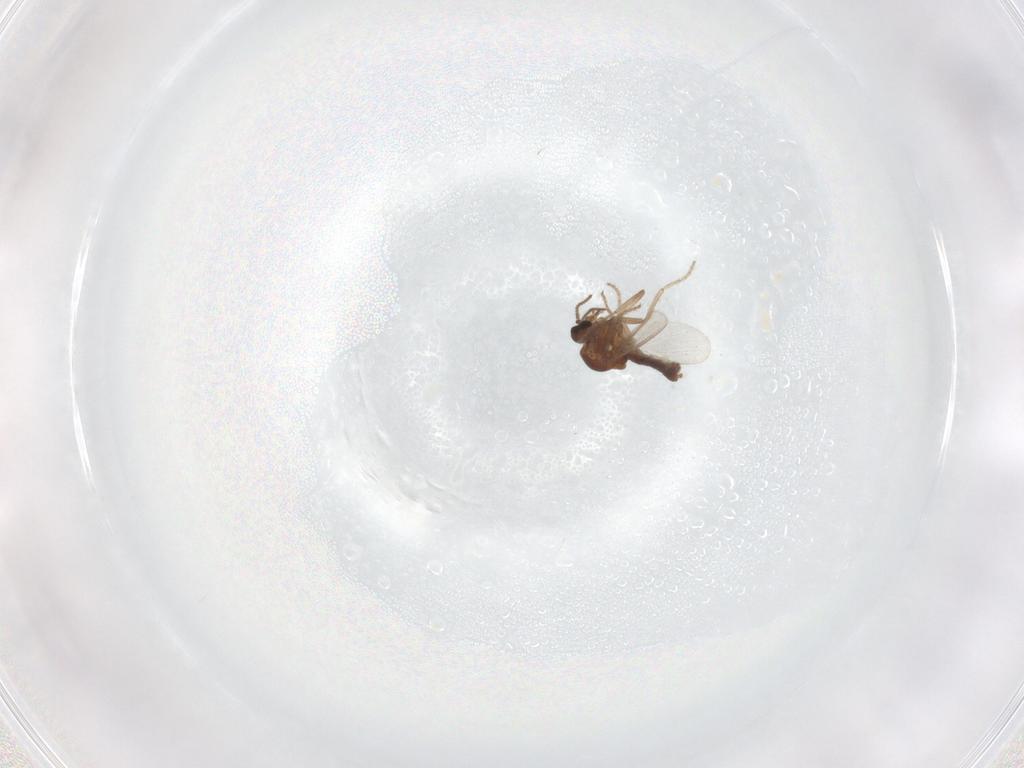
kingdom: Animalia
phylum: Arthropoda
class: Insecta
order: Diptera
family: Ceratopogonidae
